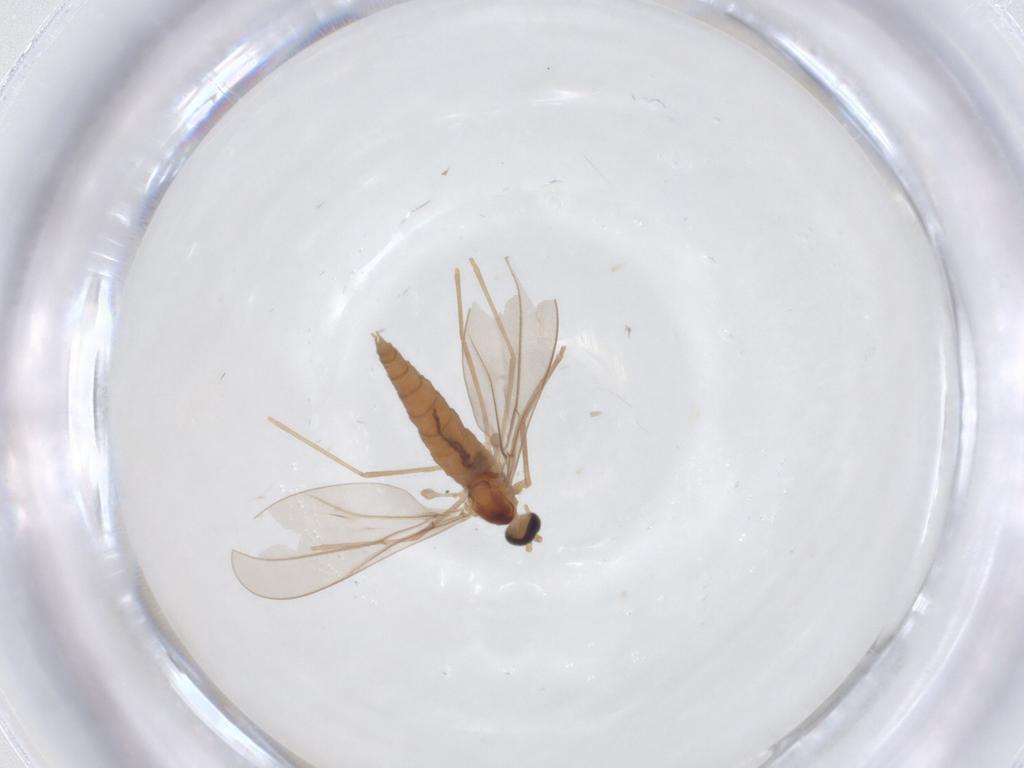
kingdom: Animalia
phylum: Arthropoda
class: Insecta
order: Diptera
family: Cecidomyiidae
